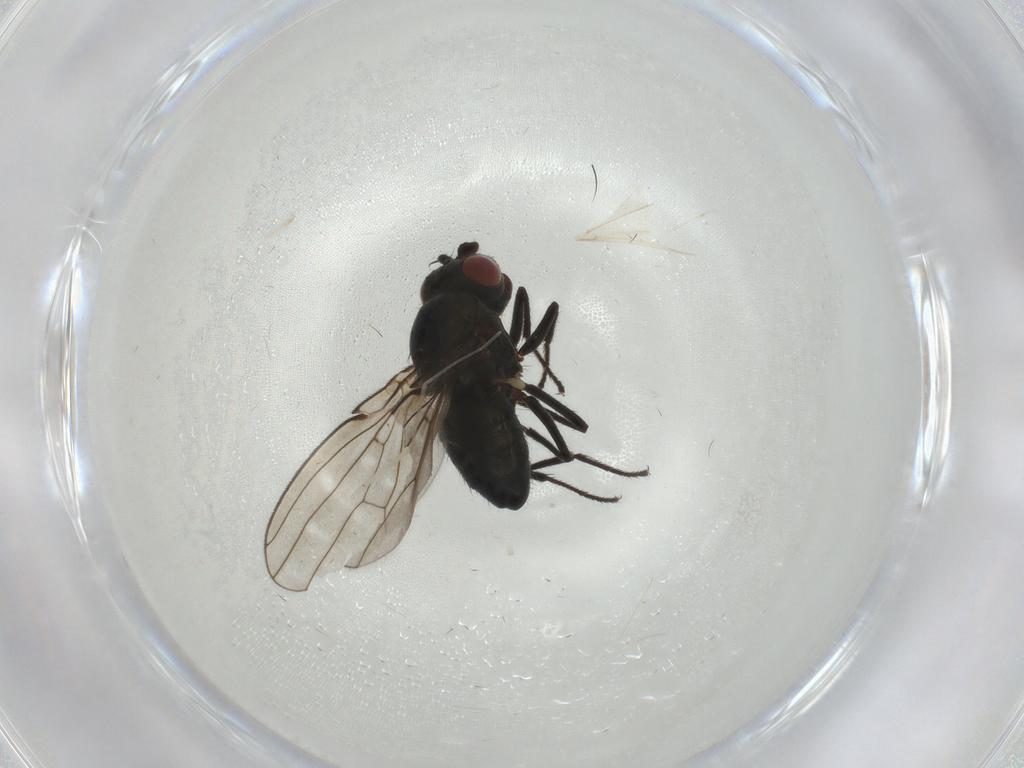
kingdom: Animalia
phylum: Arthropoda
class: Insecta
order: Diptera
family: Ephydridae
